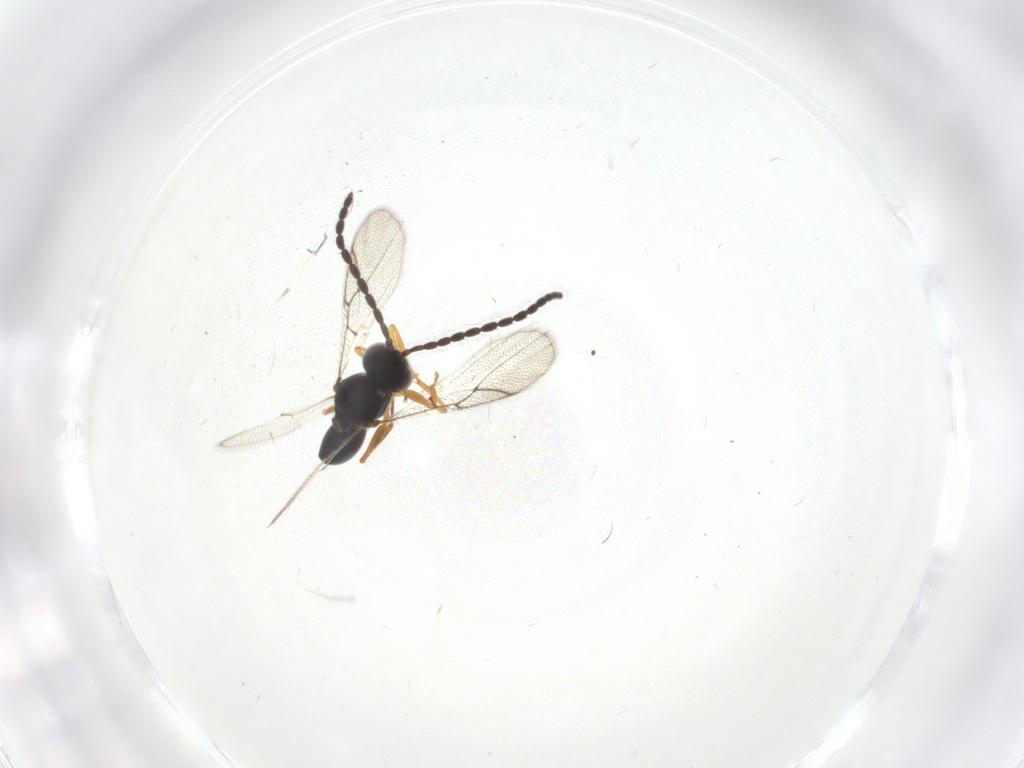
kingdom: Animalia
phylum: Arthropoda
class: Insecta
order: Hymenoptera
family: Figitidae
